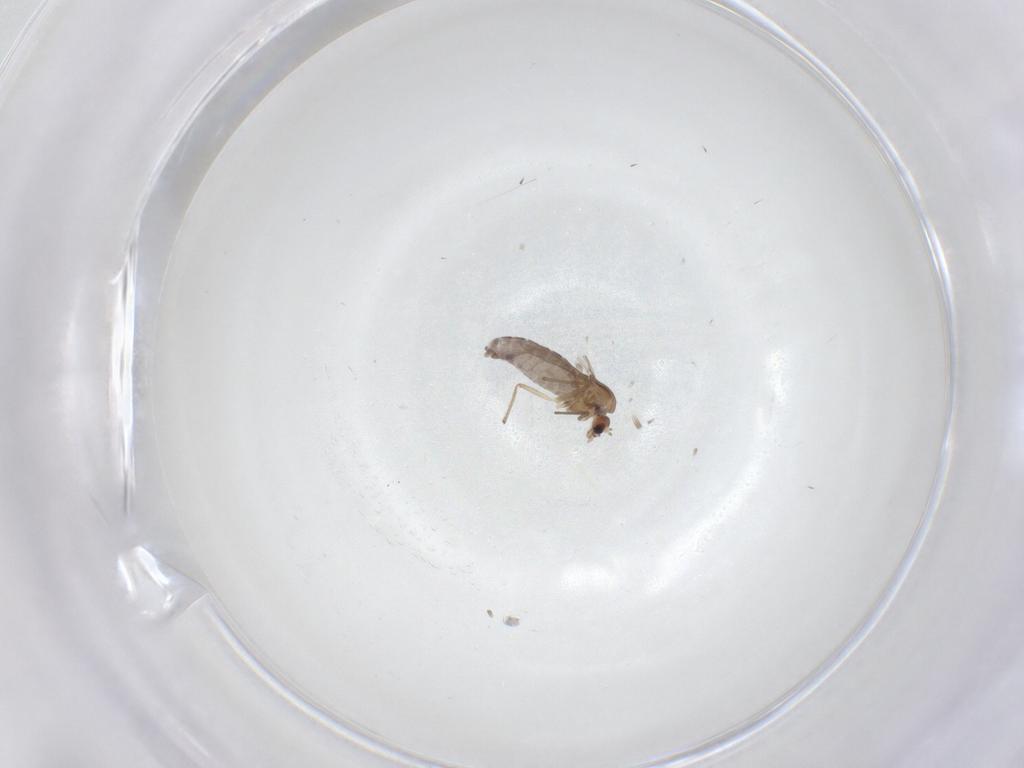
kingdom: Animalia
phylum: Arthropoda
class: Insecta
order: Diptera
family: Chironomidae
